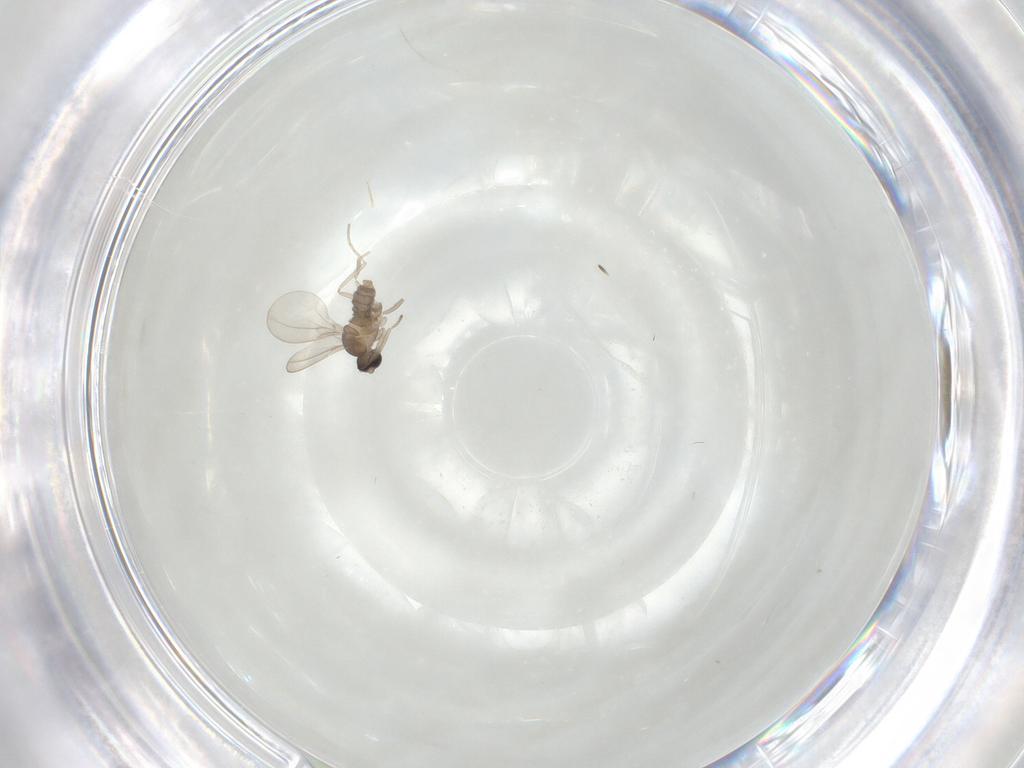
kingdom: Animalia
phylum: Arthropoda
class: Insecta
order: Diptera
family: Cecidomyiidae
